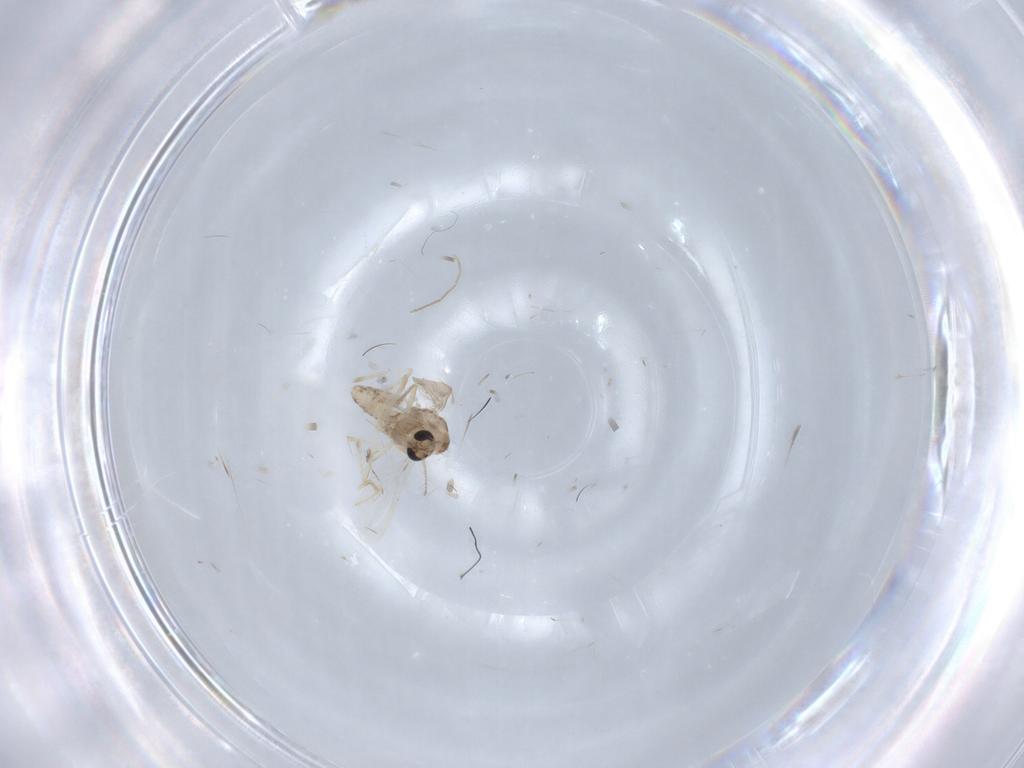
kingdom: Animalia
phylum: Arthropoda
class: Insecta
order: Diptera
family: Chironomidae
